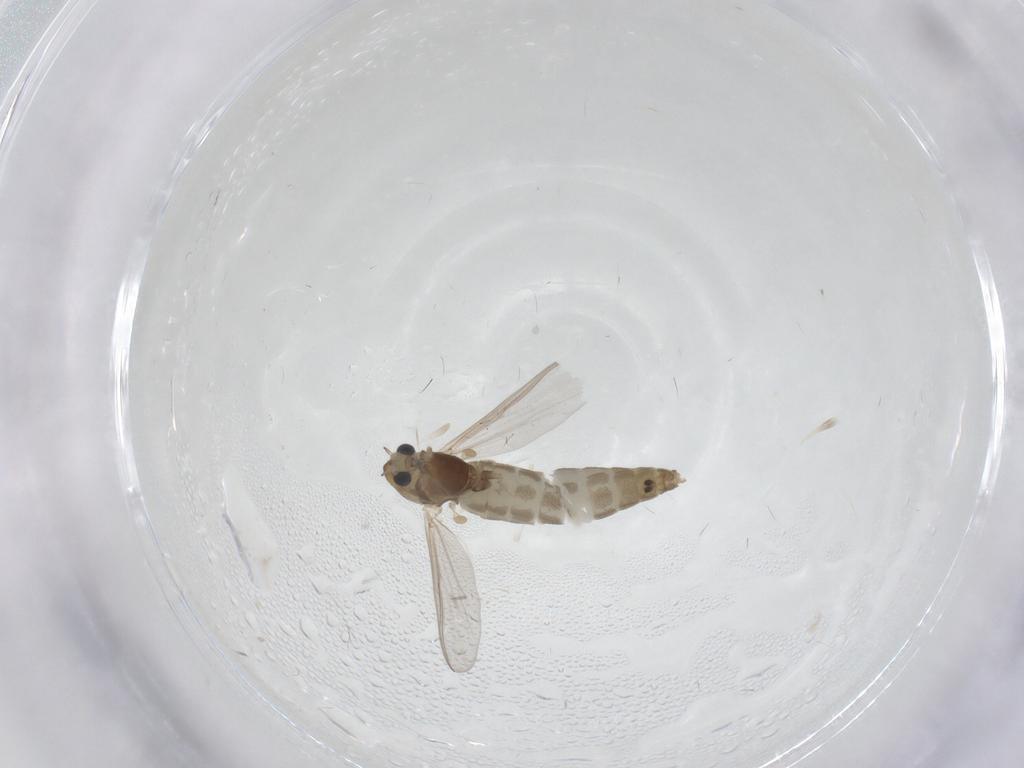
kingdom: Animalia
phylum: Arthropoda
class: Insecta
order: Diptera
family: Chironomidae
